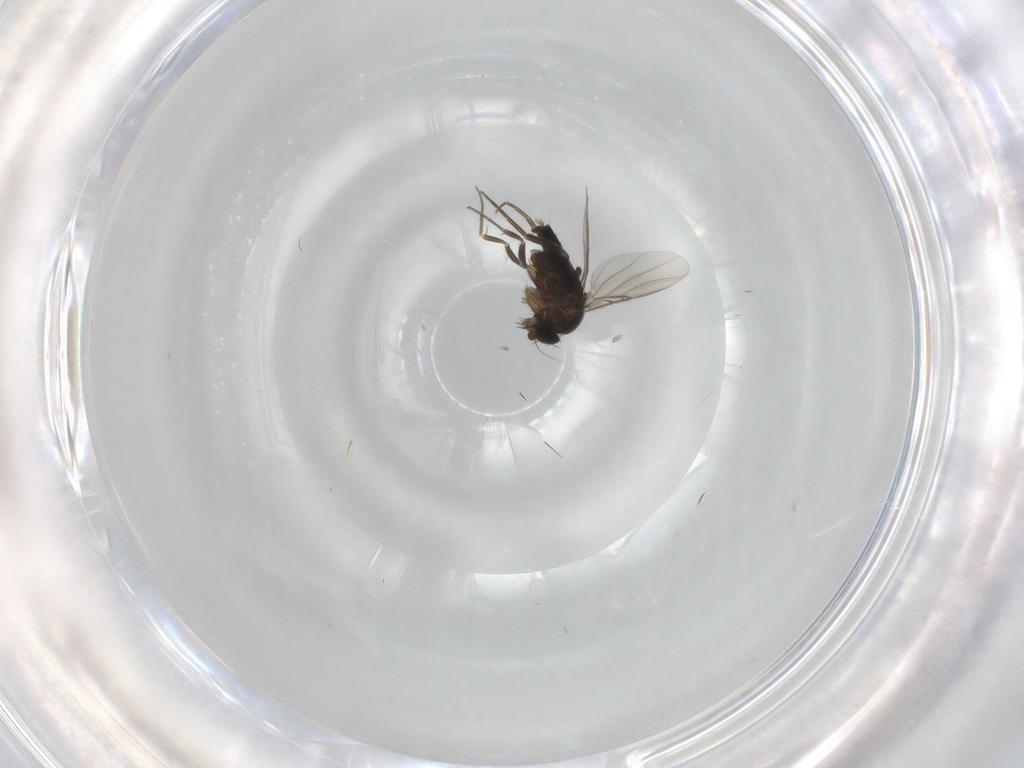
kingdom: Animalia
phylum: Arthropoda
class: Insecta
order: Diptera
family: Phoridae
